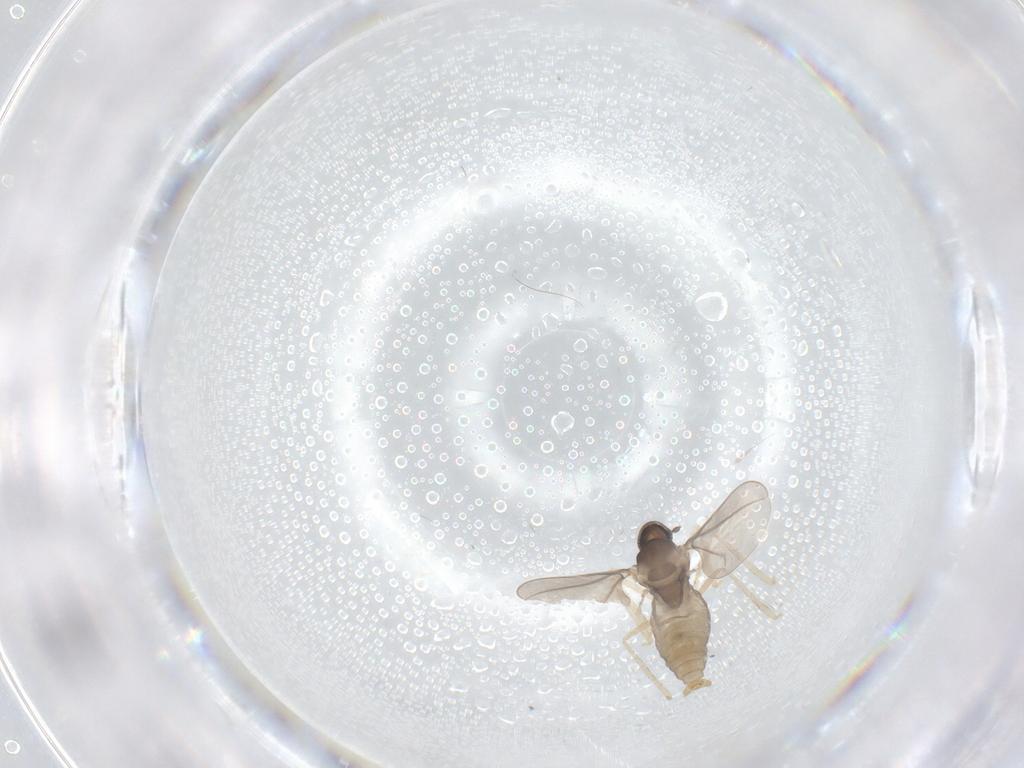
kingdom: Animalia
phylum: Arthropoda
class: Insecta
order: Diptera
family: Cecidomyiidae
